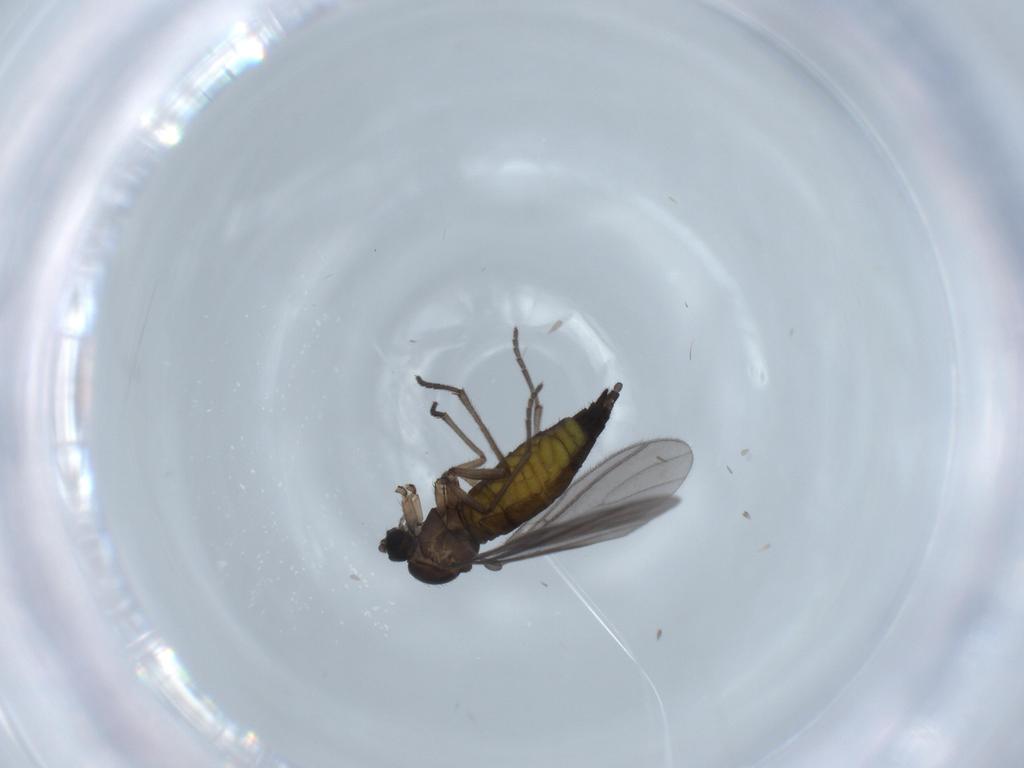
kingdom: Animalia
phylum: Arthropoda
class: Insecta
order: Diptera
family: Sciaridae
